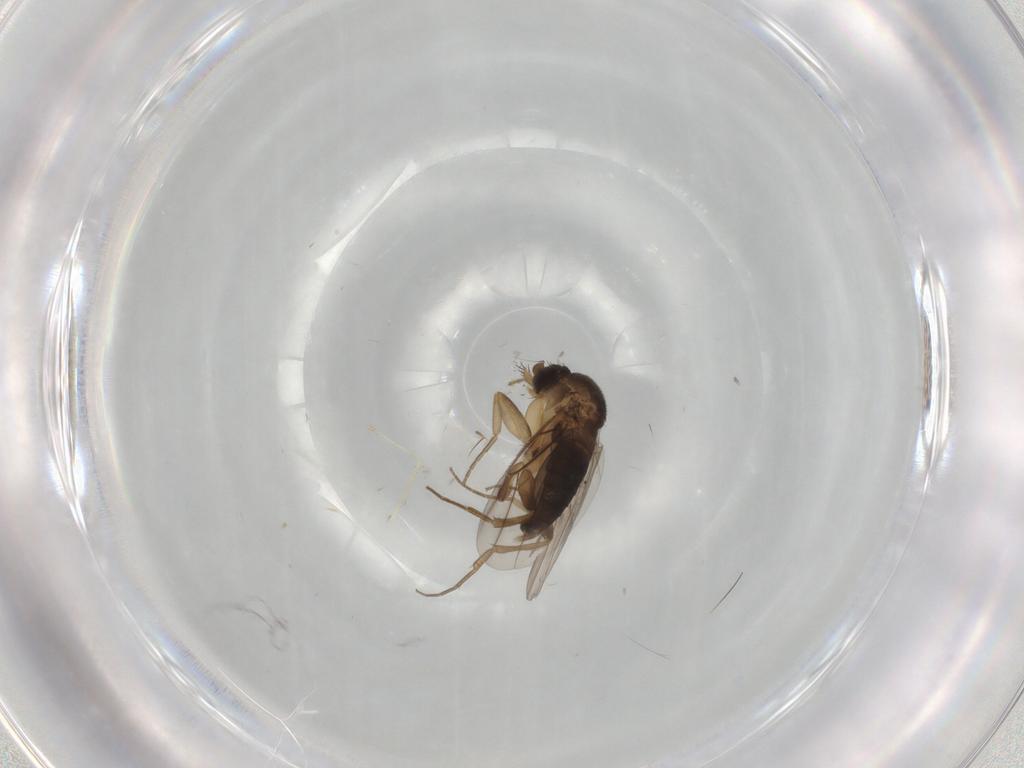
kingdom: Animalia
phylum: Arthropoda
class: Insecta
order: Diptera
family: Phoridae
